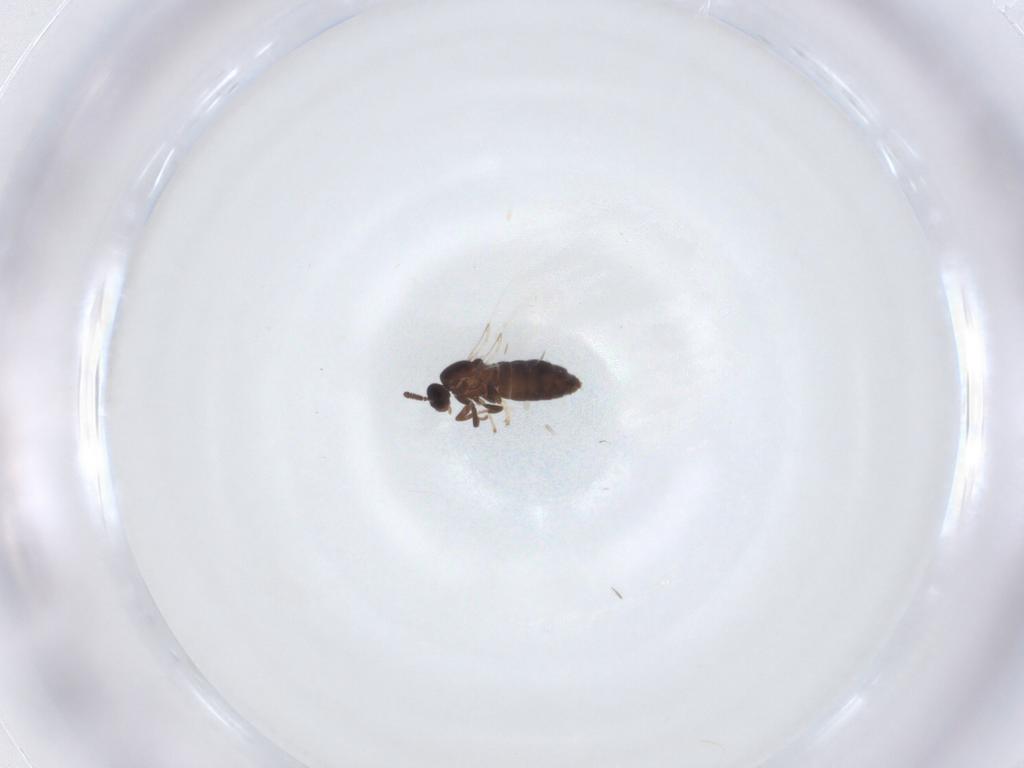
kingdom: Animalia
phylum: Arthropoda
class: Insecta
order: Diptera
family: Scatopsidae
